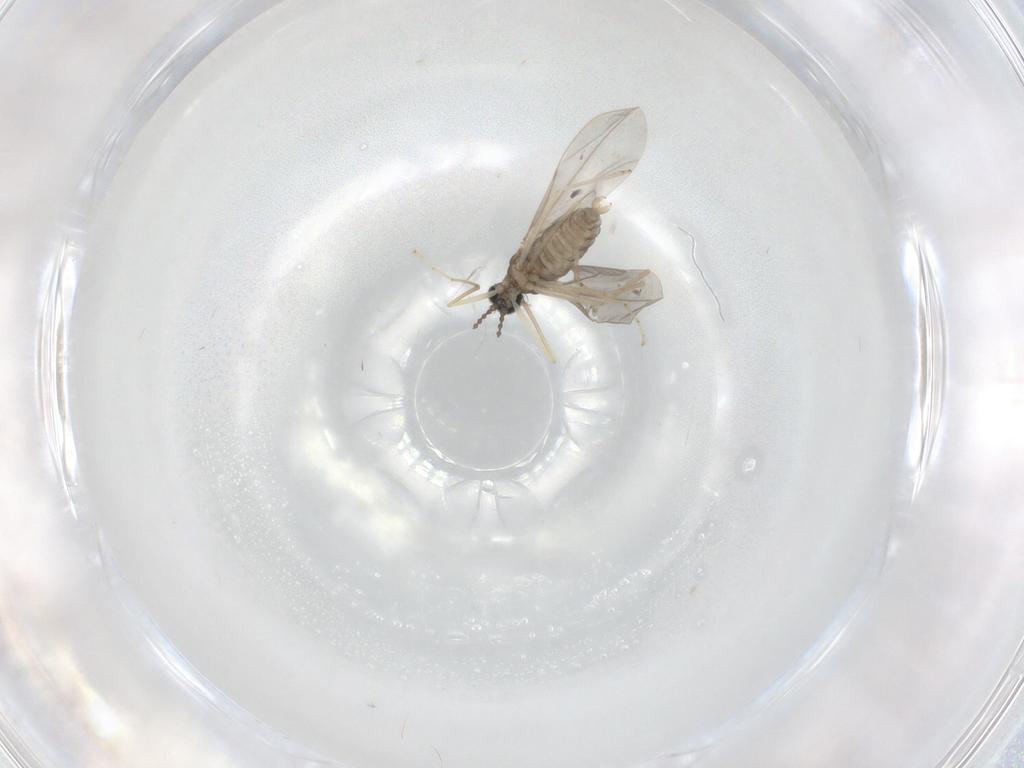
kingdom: Animalia
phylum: Arthropoda
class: Insecta
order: Diptera
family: Cecidomyiidae
